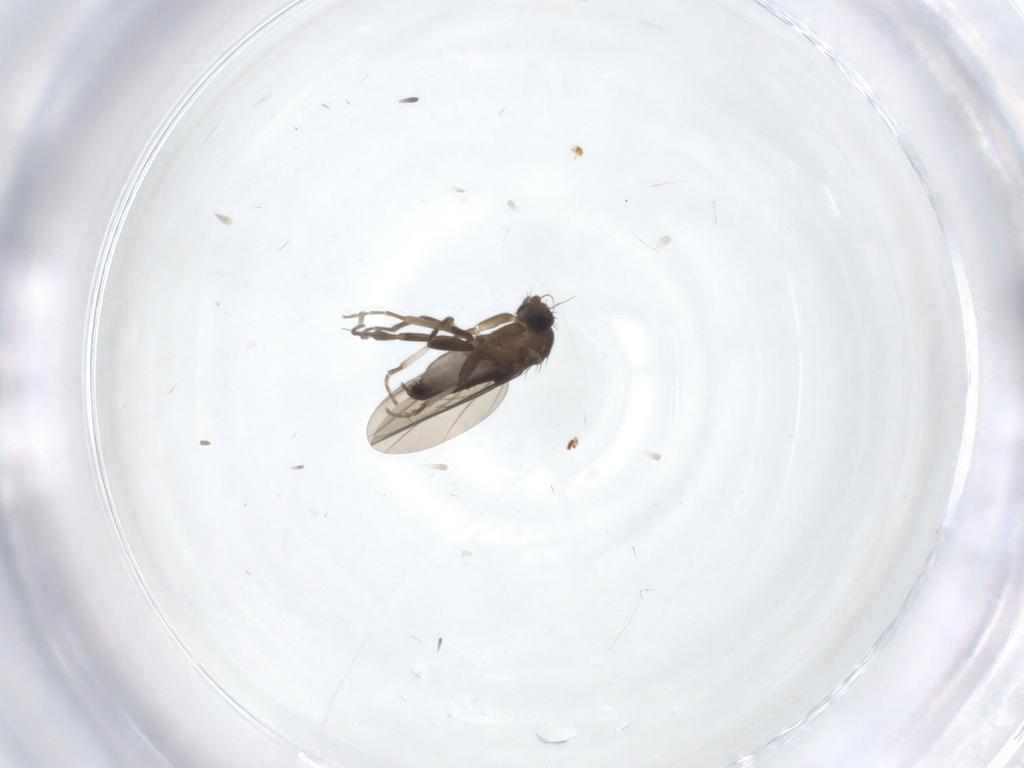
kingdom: Animalia
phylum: Arthropoda
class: Insecta
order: Diptera
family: Phoridae
